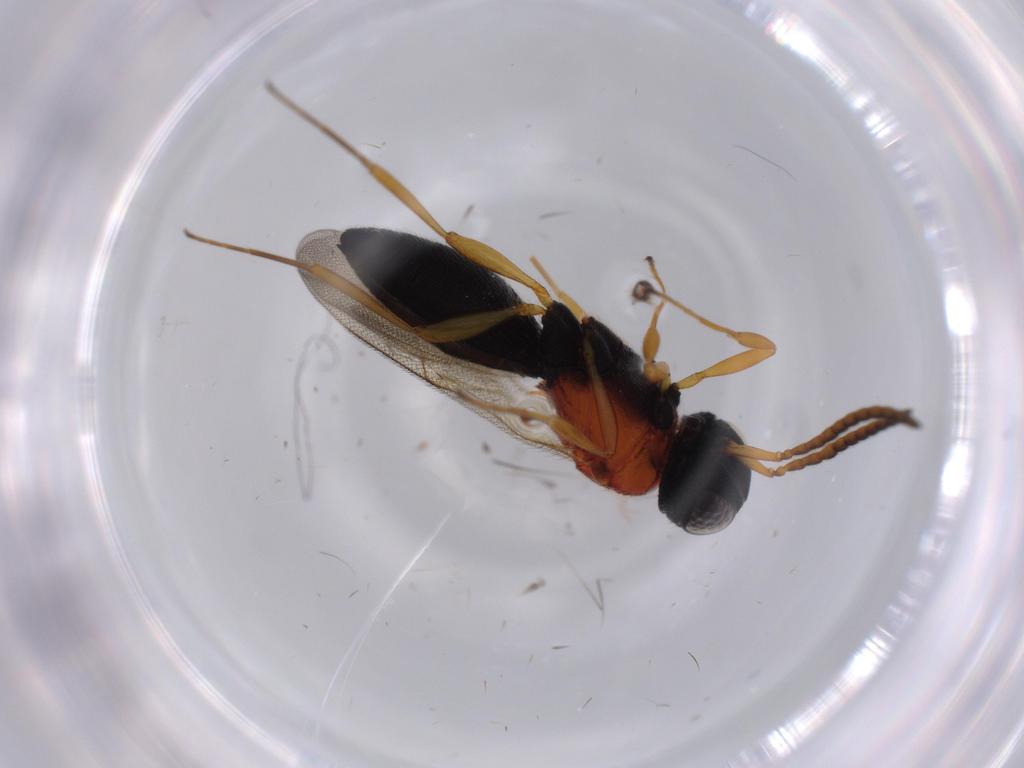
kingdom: Animalia
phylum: Arthropoda
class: Insecta
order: Hymenoptera
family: Scelionidae
